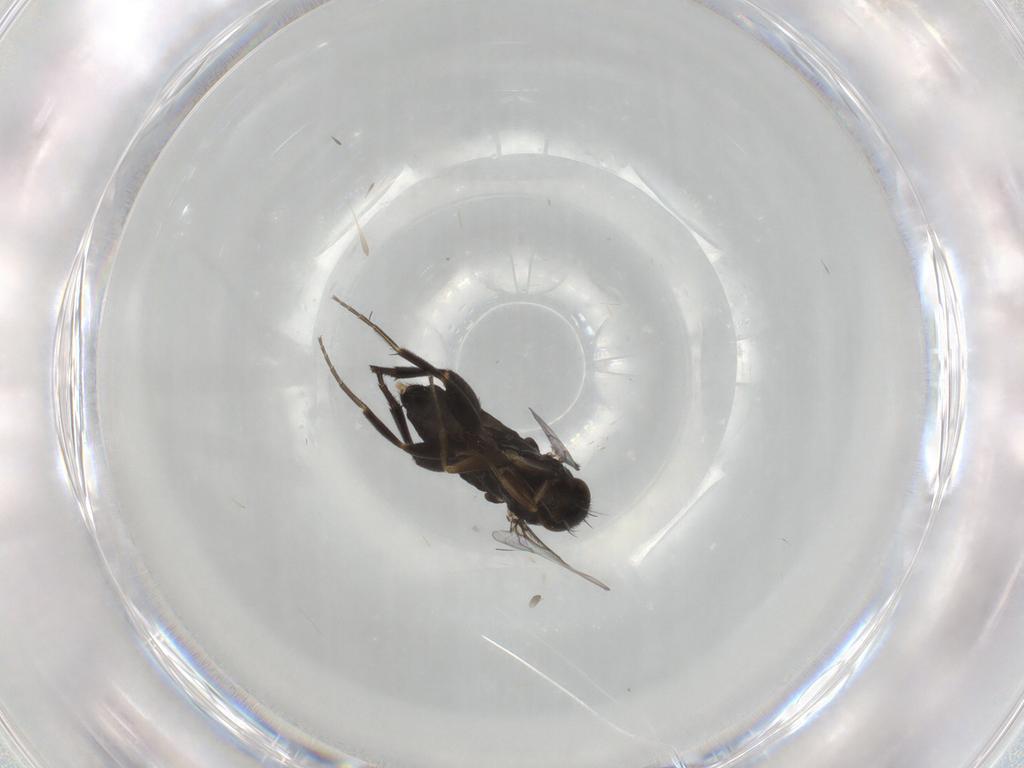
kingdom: Animalia
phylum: Arthropoda
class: Insecta
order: Diptera
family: Phoridae
